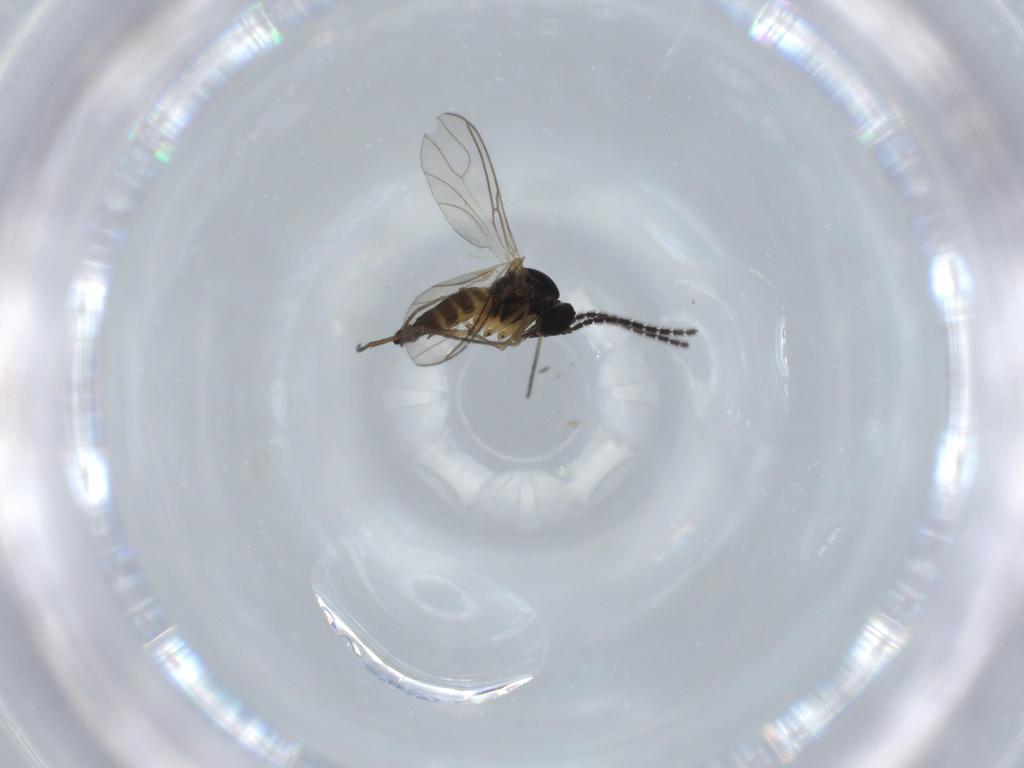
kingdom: Animalia
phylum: Arthropoda
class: Insecta
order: Diptera
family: Sciaridae
